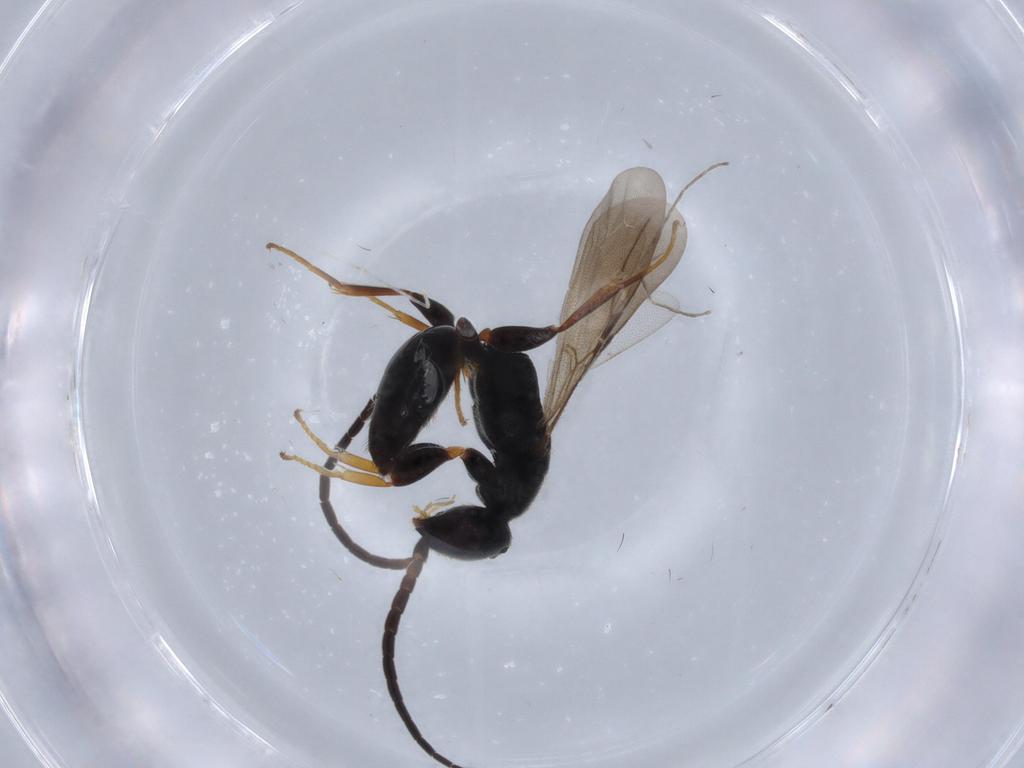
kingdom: Animalia
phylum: Arthropoda
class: Insecta
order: Hymenoptera
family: Bethylidae
